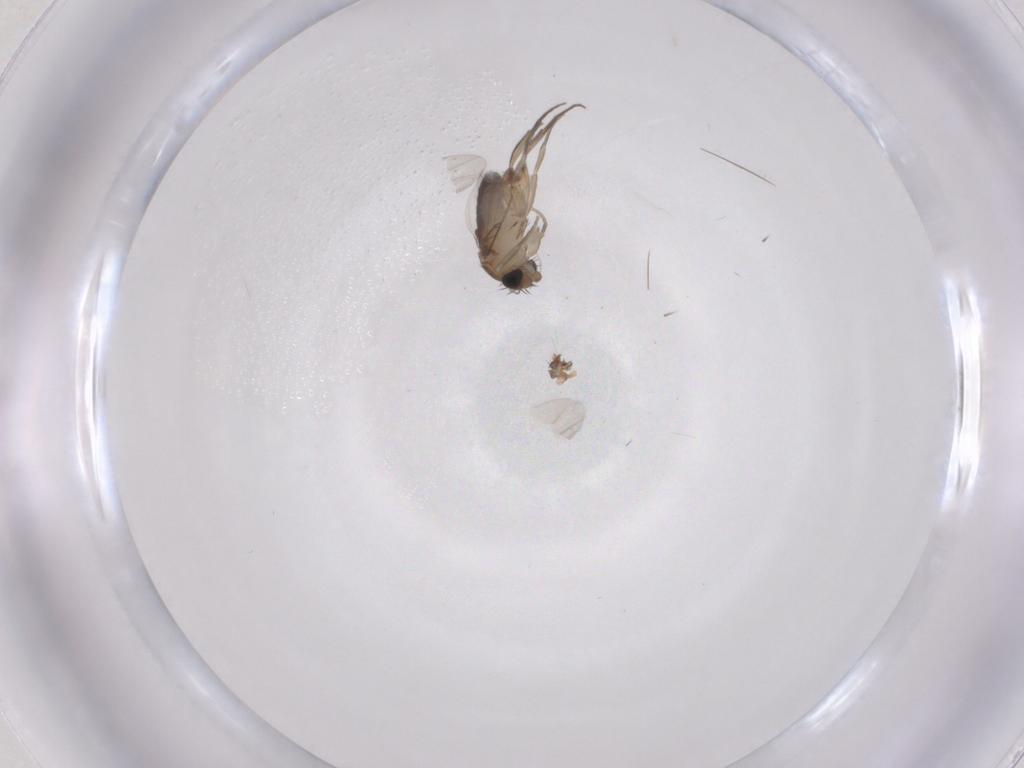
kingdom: Animalia
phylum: Arthropoda
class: Insecta
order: Diptera
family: Phoridae
